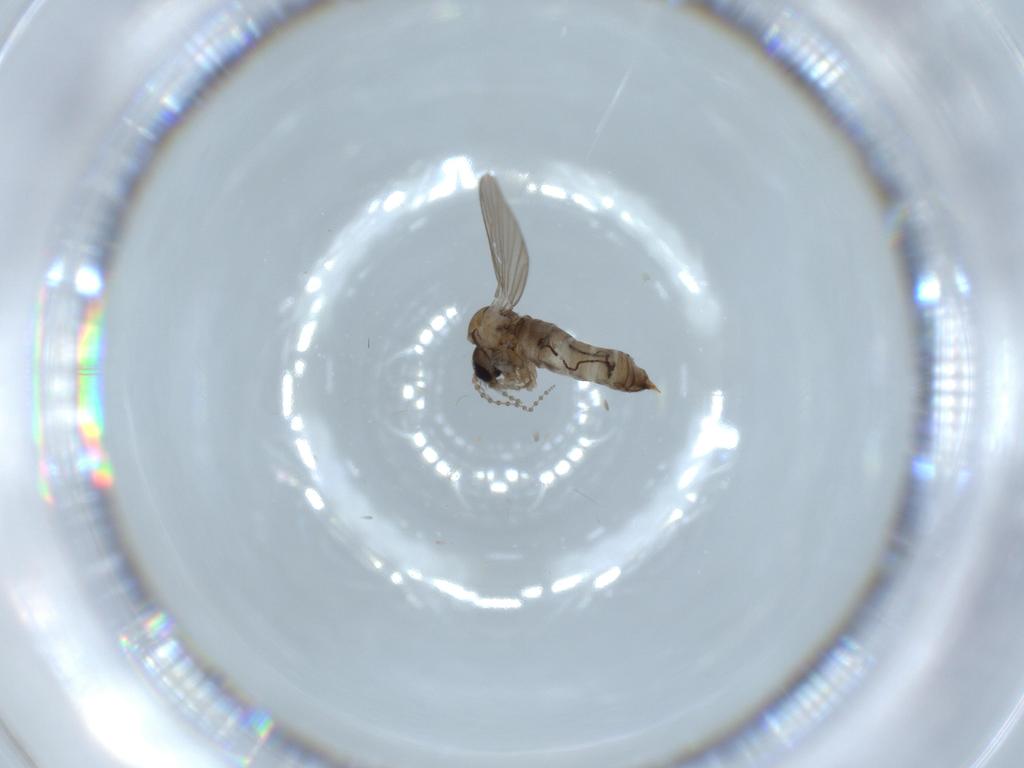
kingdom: Animalia
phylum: Arthropoda
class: Insecta
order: Diptera
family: Psychodidae
